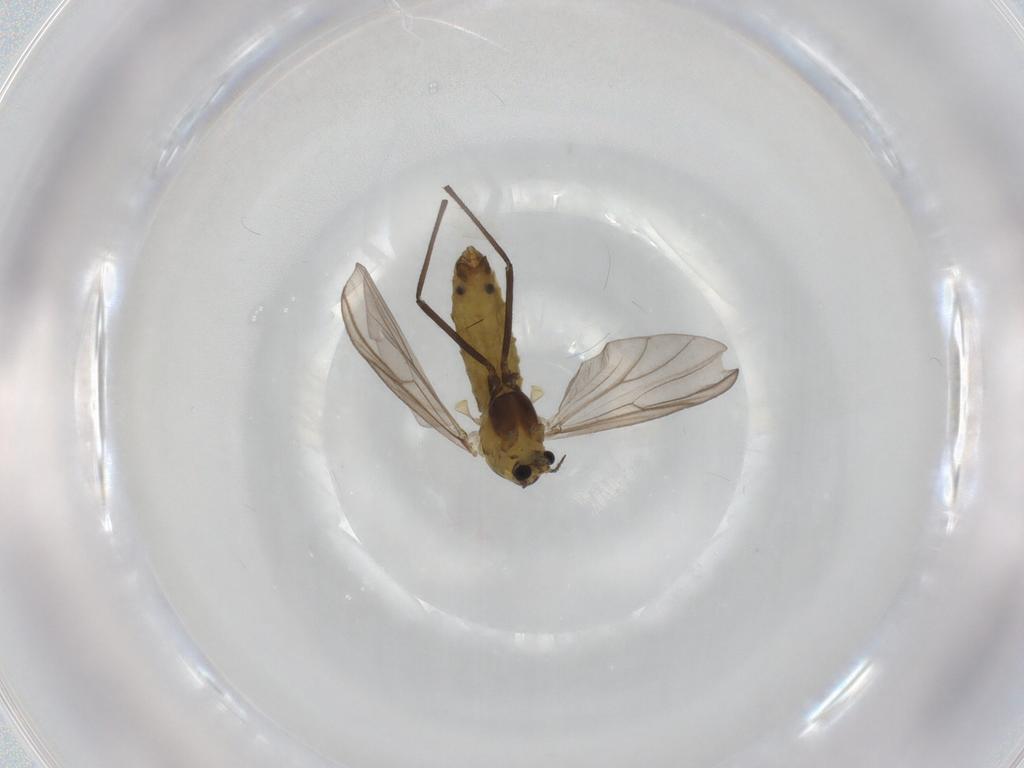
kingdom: Animalia
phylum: Arthropoda
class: Insecta
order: Diptera
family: Chironomidae
